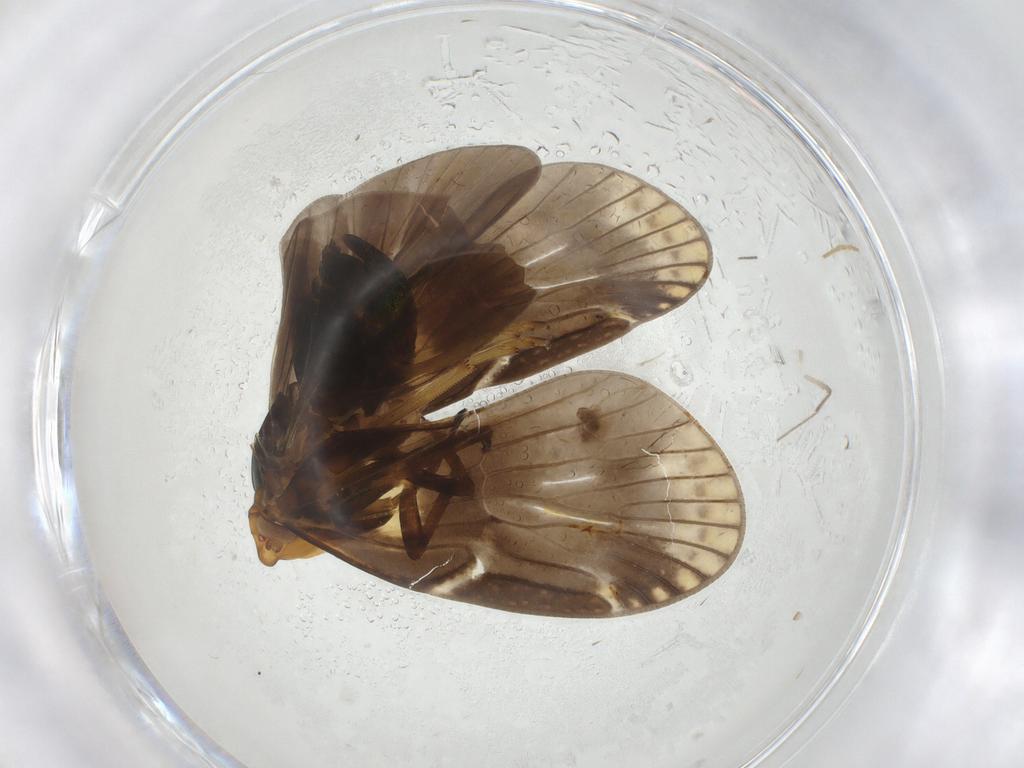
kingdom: Animalia
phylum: Arthropoda
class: Insecta
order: Hemiptera
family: Cixiidae
